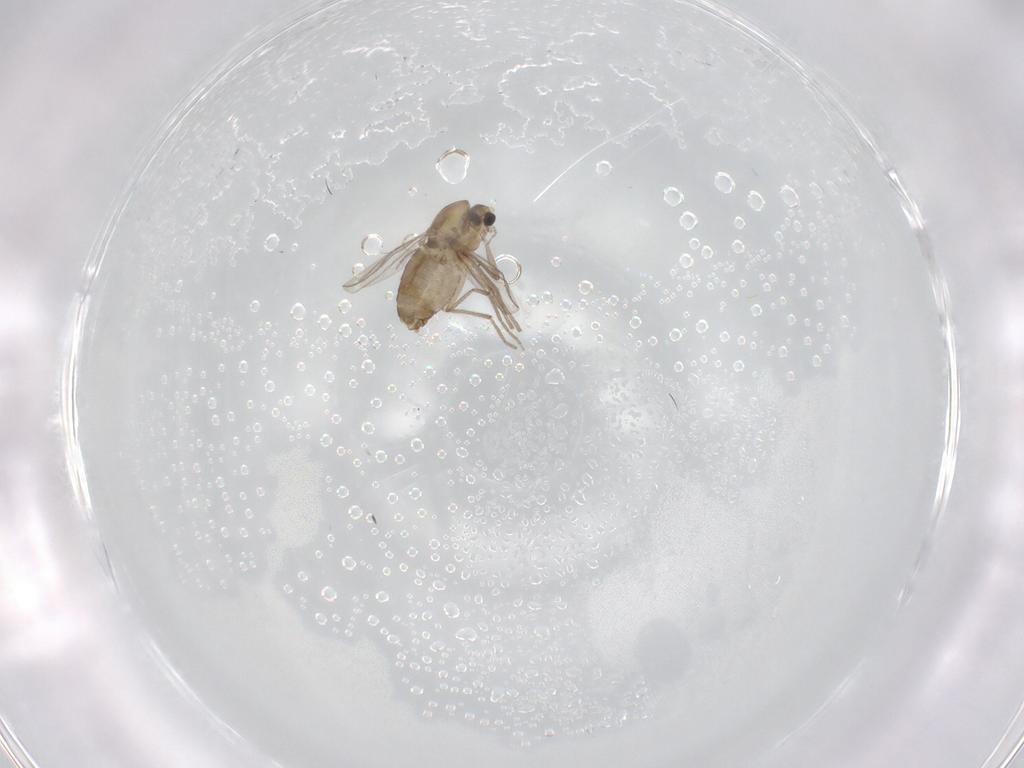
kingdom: Animalia
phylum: Arthropoda
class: Insecta
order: Diptera
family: Chironomidae
